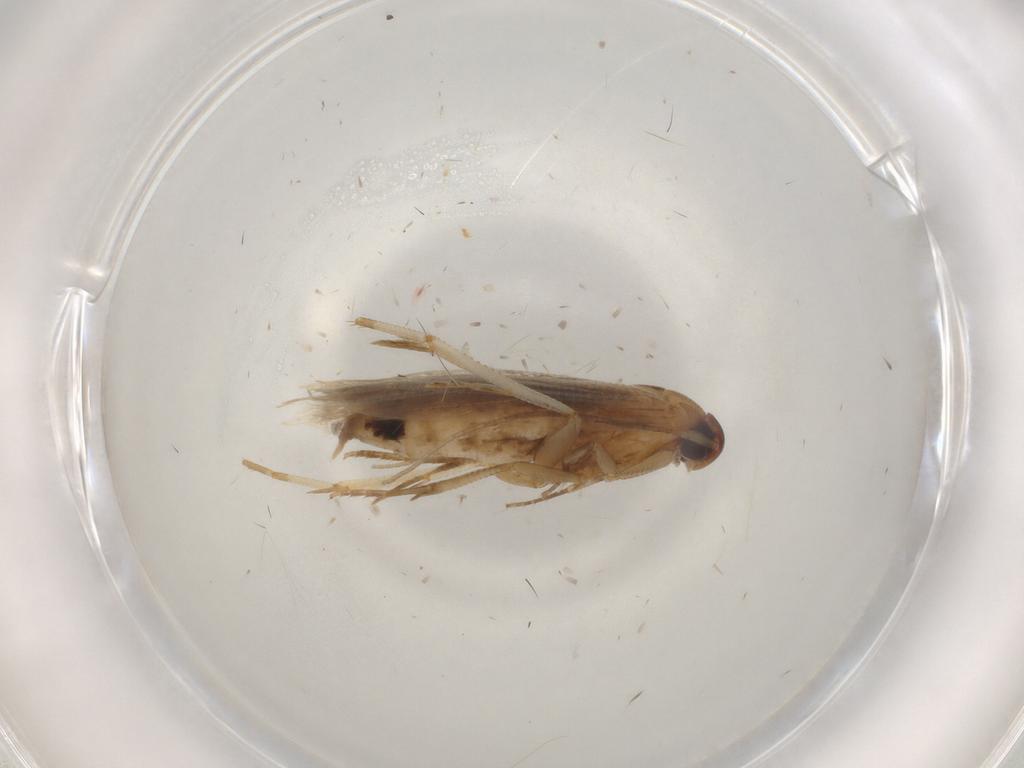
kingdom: Animalia
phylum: Arthropoda
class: Insecta
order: Lepidoptera
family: Cosmopterigidae
